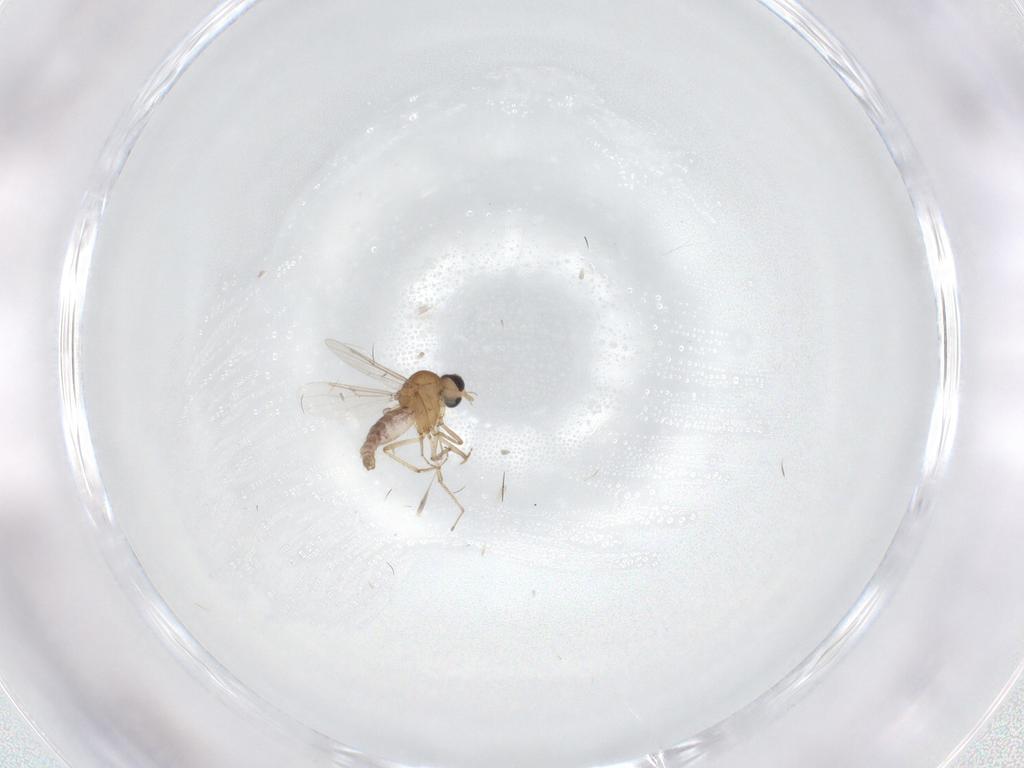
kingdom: Animalia
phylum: Arthropoda
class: Insecta
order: Diptera
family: Ceratopogonidae
